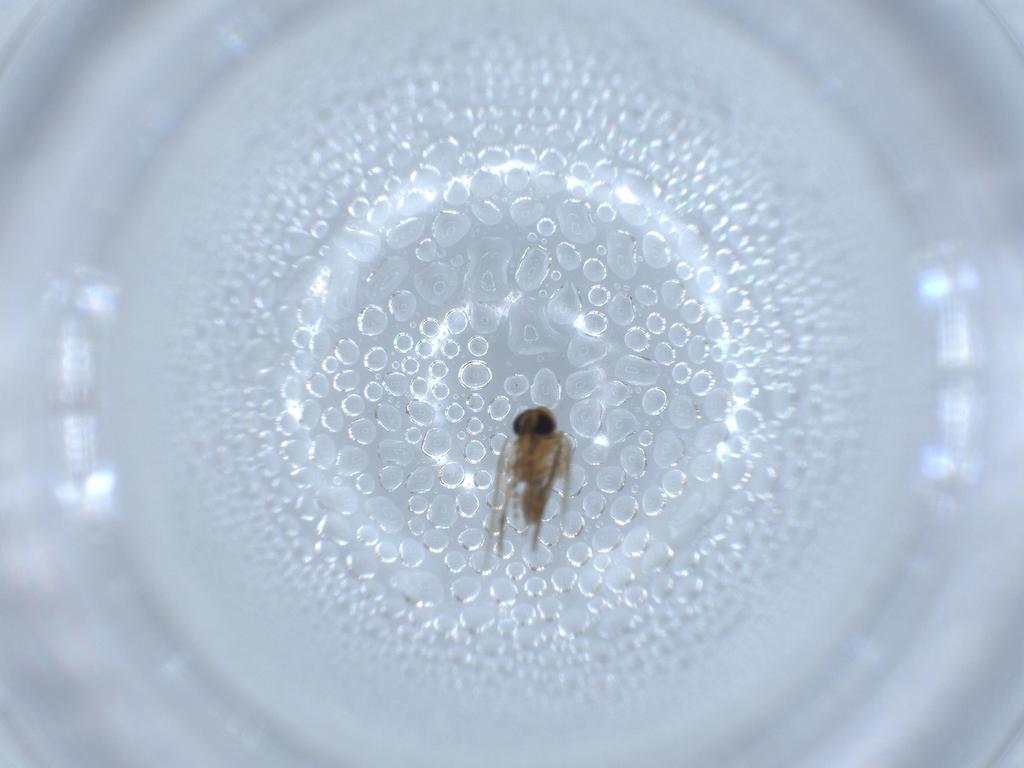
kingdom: Animalia
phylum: Arthropoda
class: Insecta
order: Diptera
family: Psychodidae
